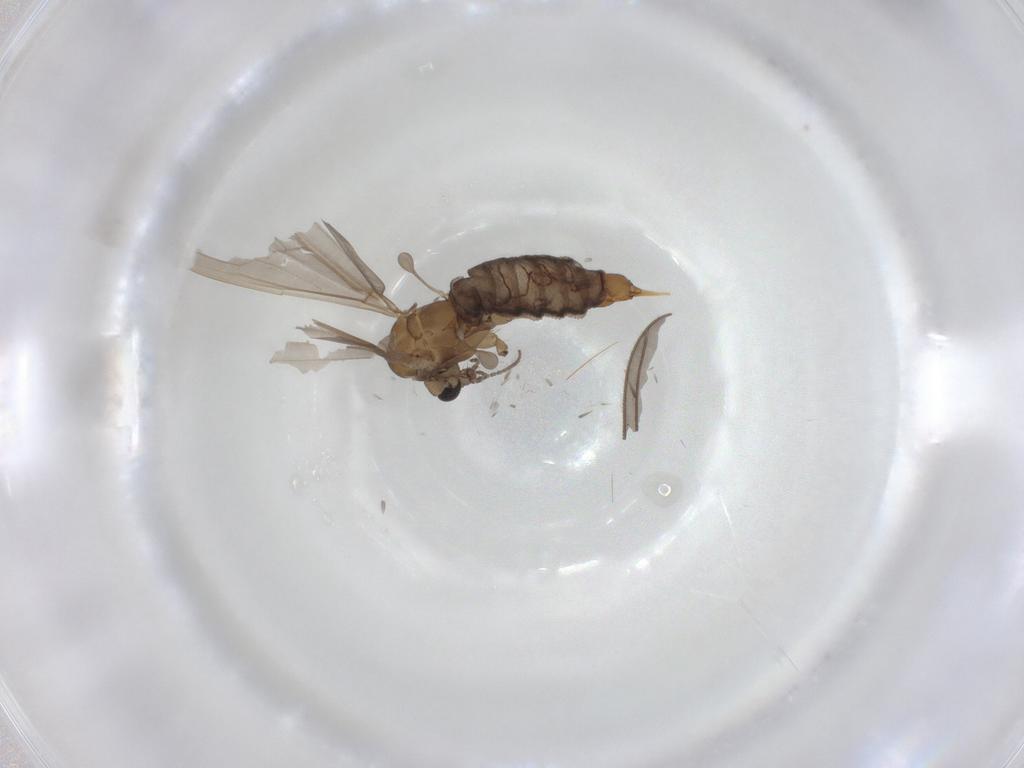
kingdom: Animalia
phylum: Arthropoda
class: Insecta
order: Diptera
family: Limoniidae
